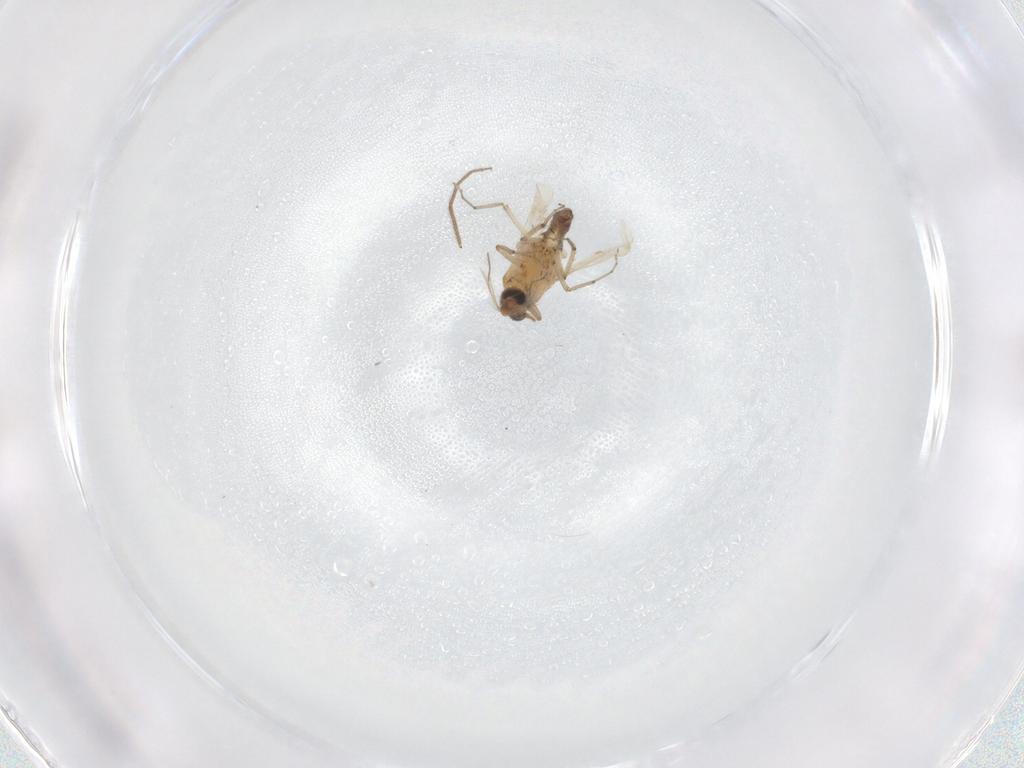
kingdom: Animalia
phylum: Arthropoda
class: Insecta
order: Diptera
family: Ceratopogonidae
